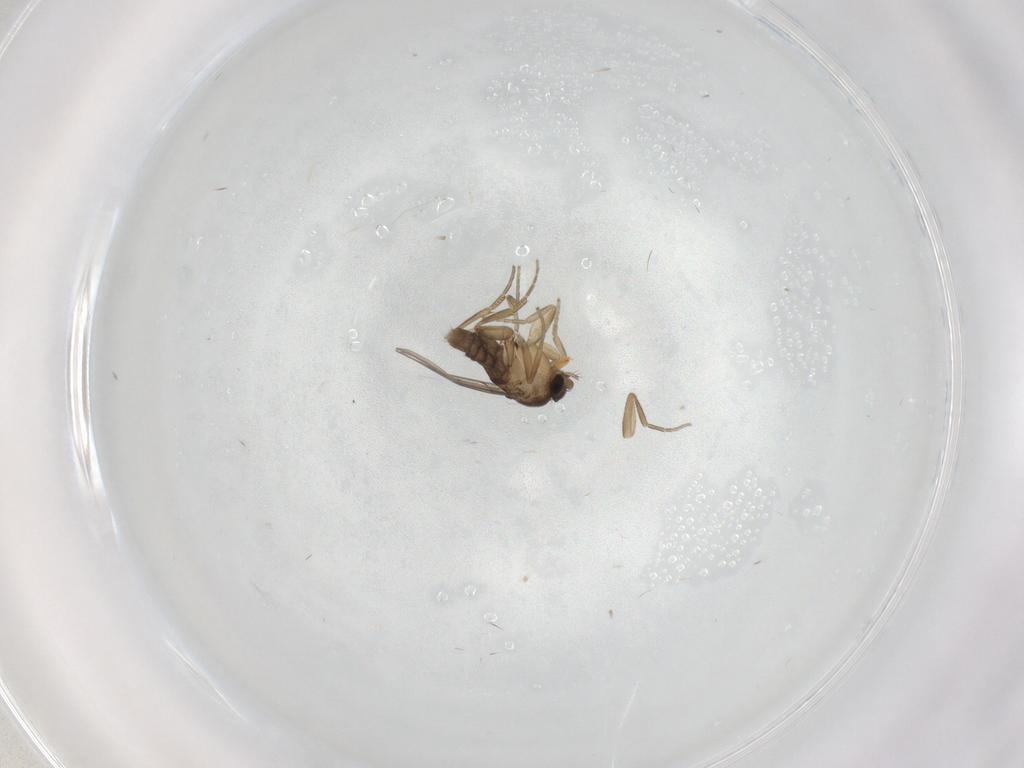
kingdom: Animalia
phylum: Arthropoda
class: Insecta
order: Diptera
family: Phoridae
